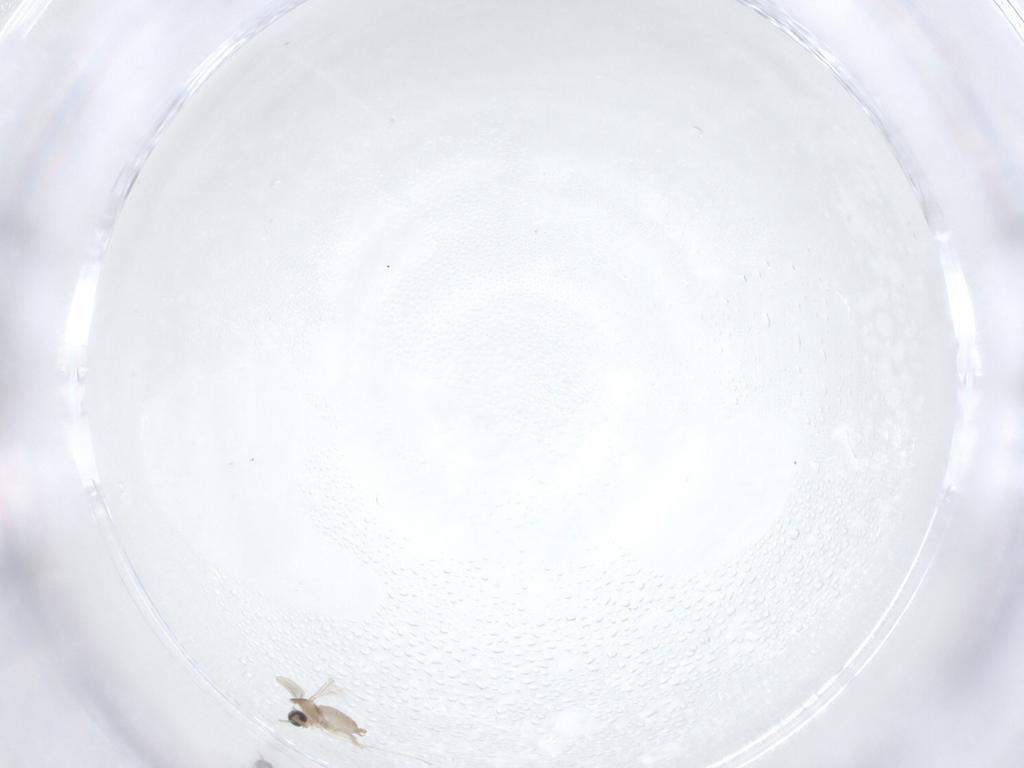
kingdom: Animalia
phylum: Arthropoda
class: Insecta
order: Diptera
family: Cecidomyiidae
